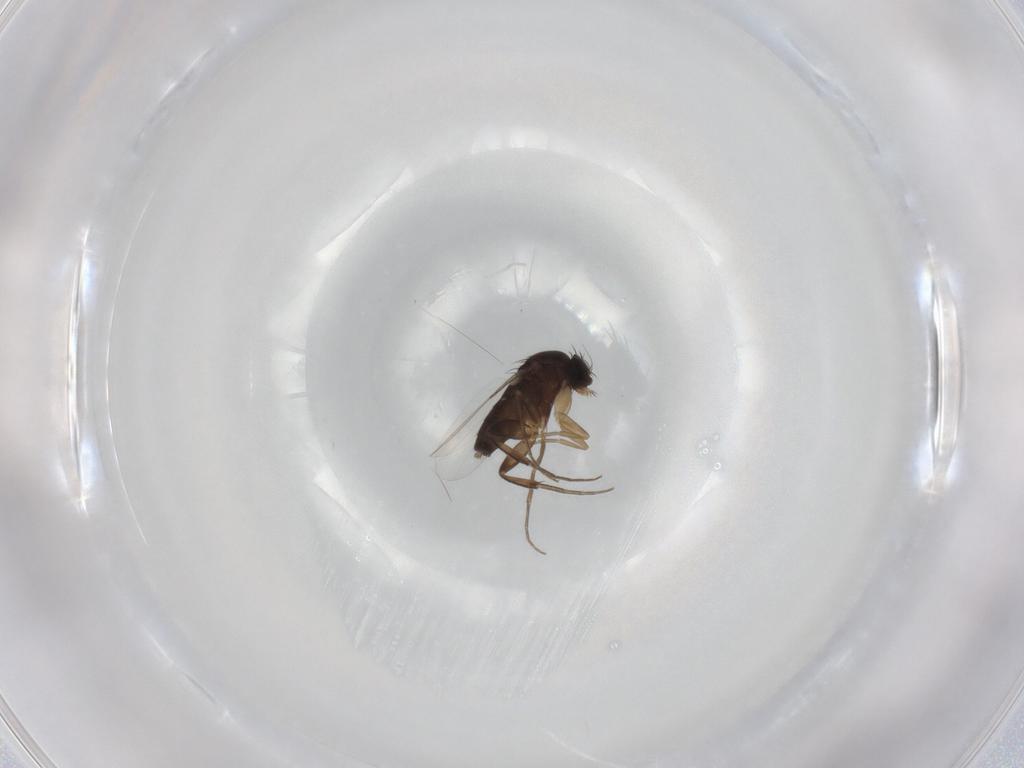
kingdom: Animalia
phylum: Arthropoda
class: Insecta
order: Diptera
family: Phoridae
